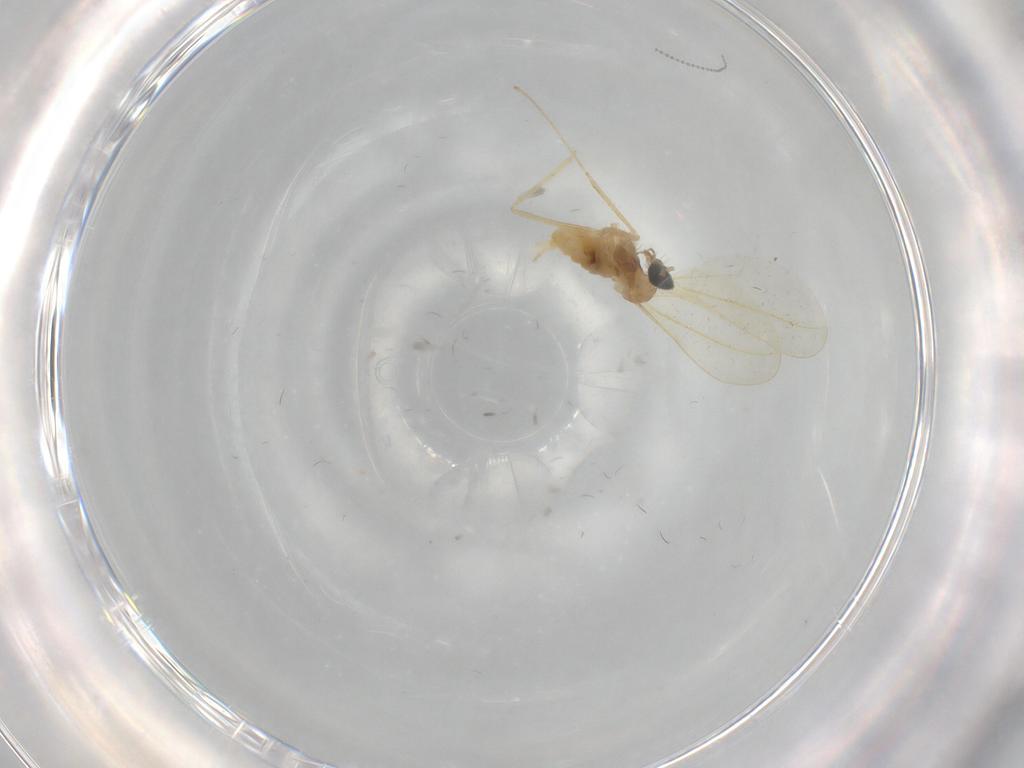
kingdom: Animalia
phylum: Arthropoda
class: Insecta
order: Diptera
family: Cecidomyiidae
